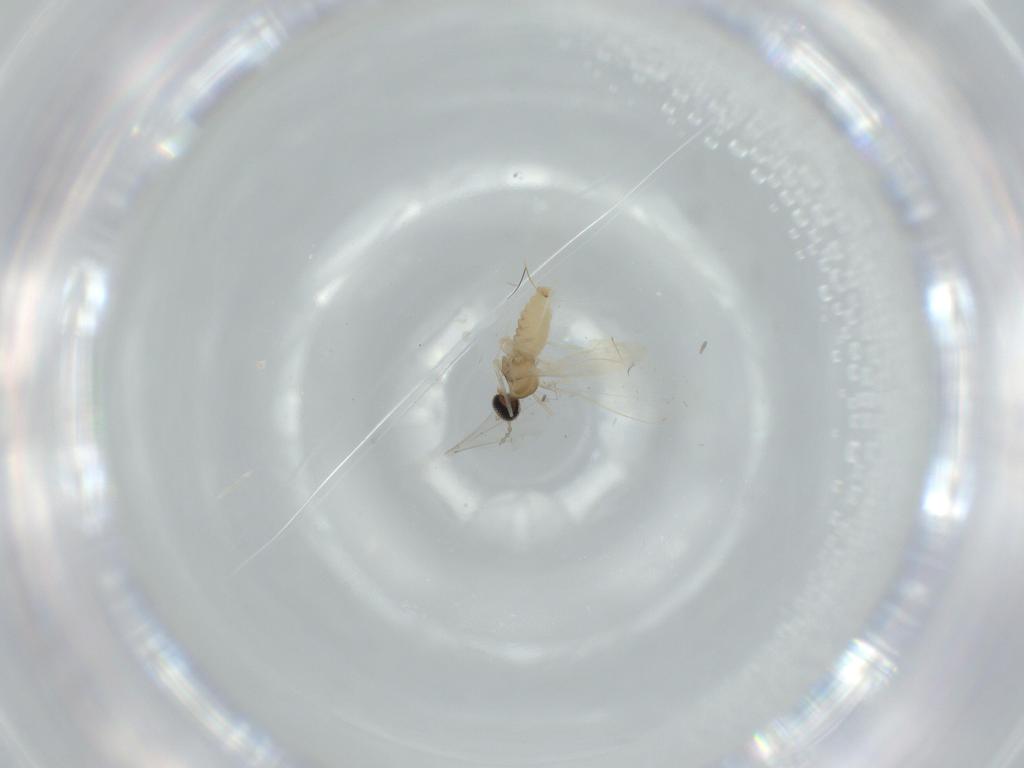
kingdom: Animalia
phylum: Arthropoda
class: Insecta
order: Diptera
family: Cecidomyiidae
